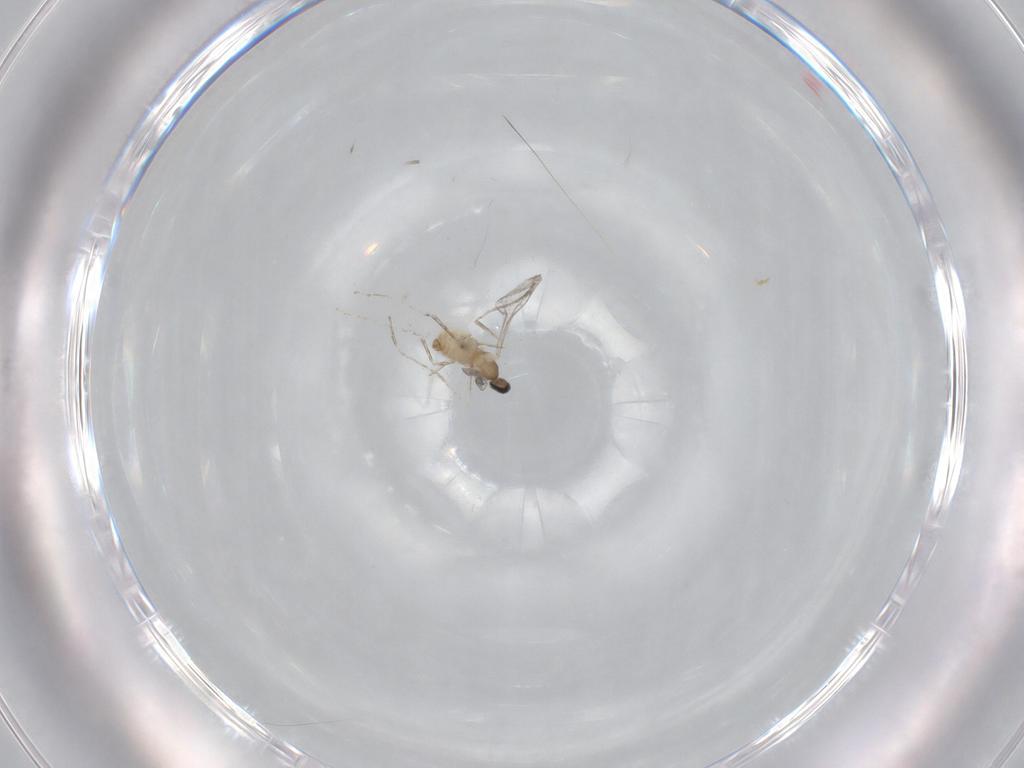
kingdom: Animalia
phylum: Arthropoda
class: Insecta
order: Diptera
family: Cecidomyiidae
